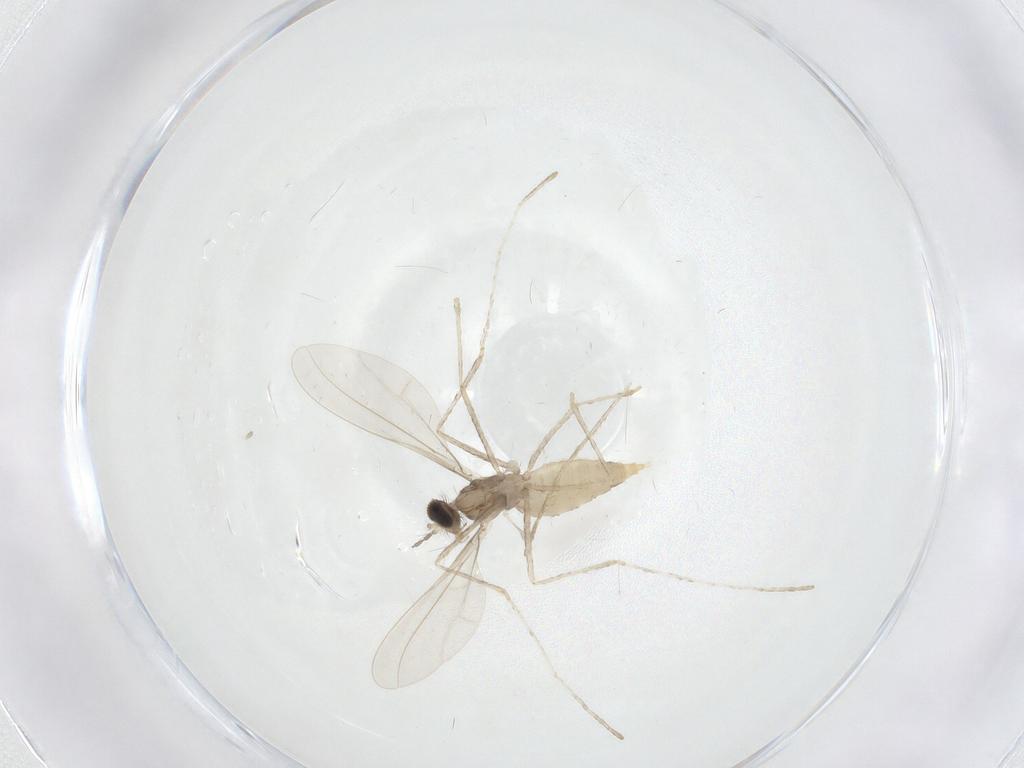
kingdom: Animalia
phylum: Arthropoda
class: Insecta
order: Diptera
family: Cecidomyiidae
